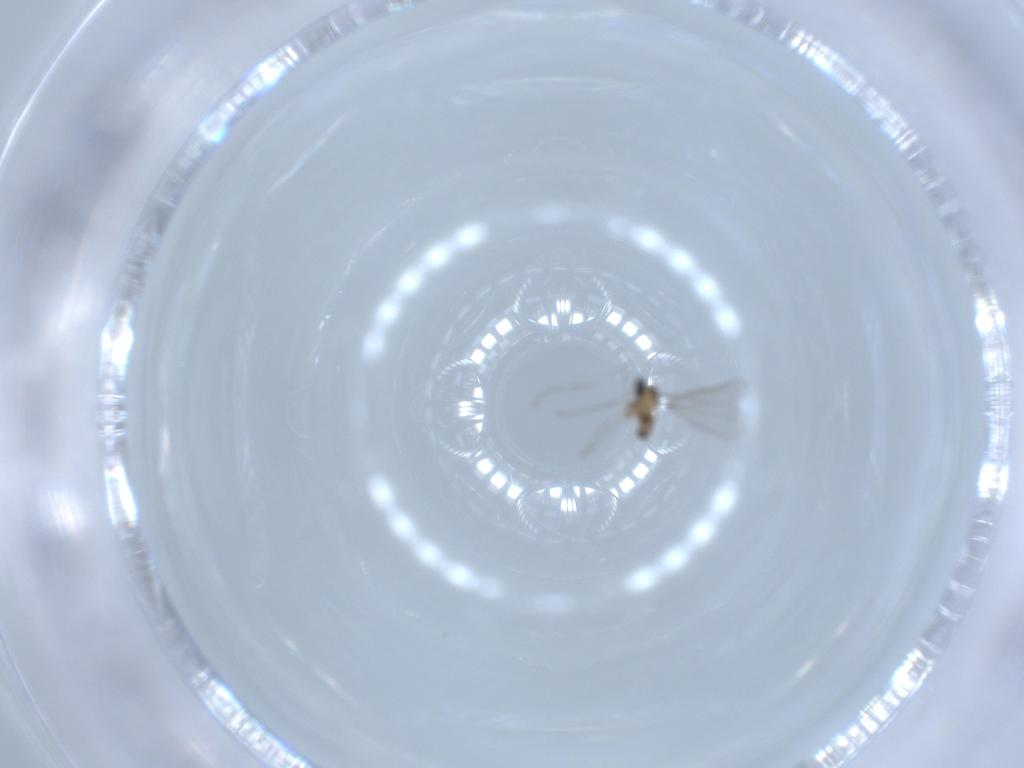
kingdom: Animalia
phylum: Arthropoda
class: Insecta
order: Diptera
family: Cecidomyiidae
